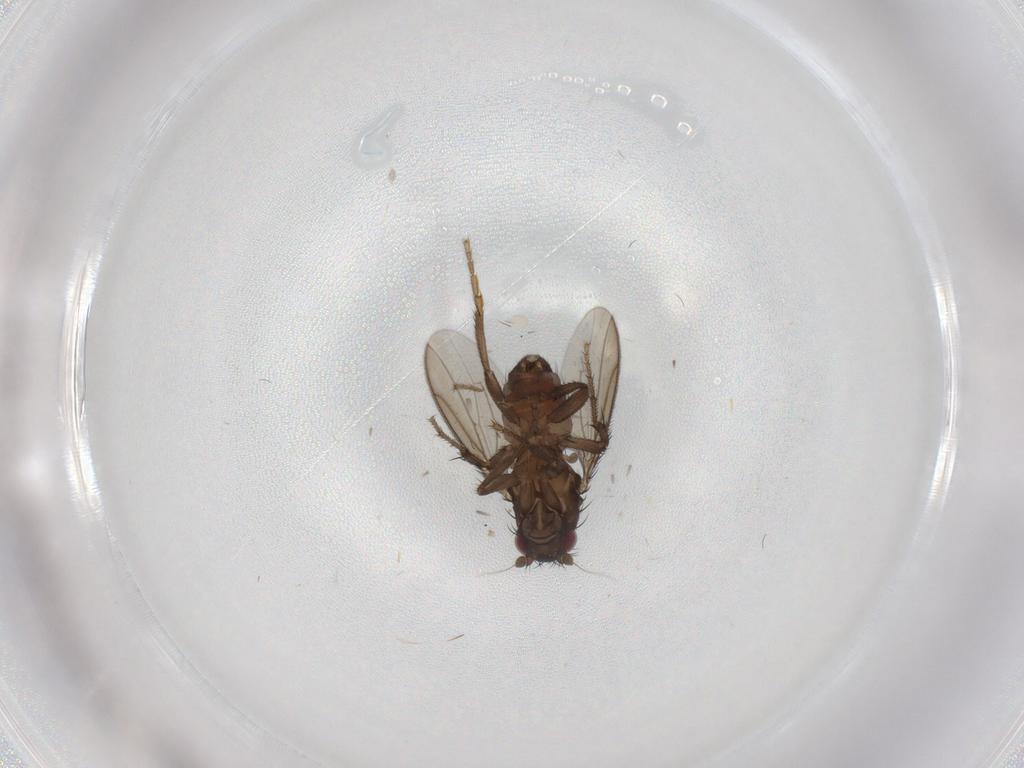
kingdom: Animalia
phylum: Arthropoda
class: Insecta
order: Diptera
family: Sphaeroceridae
